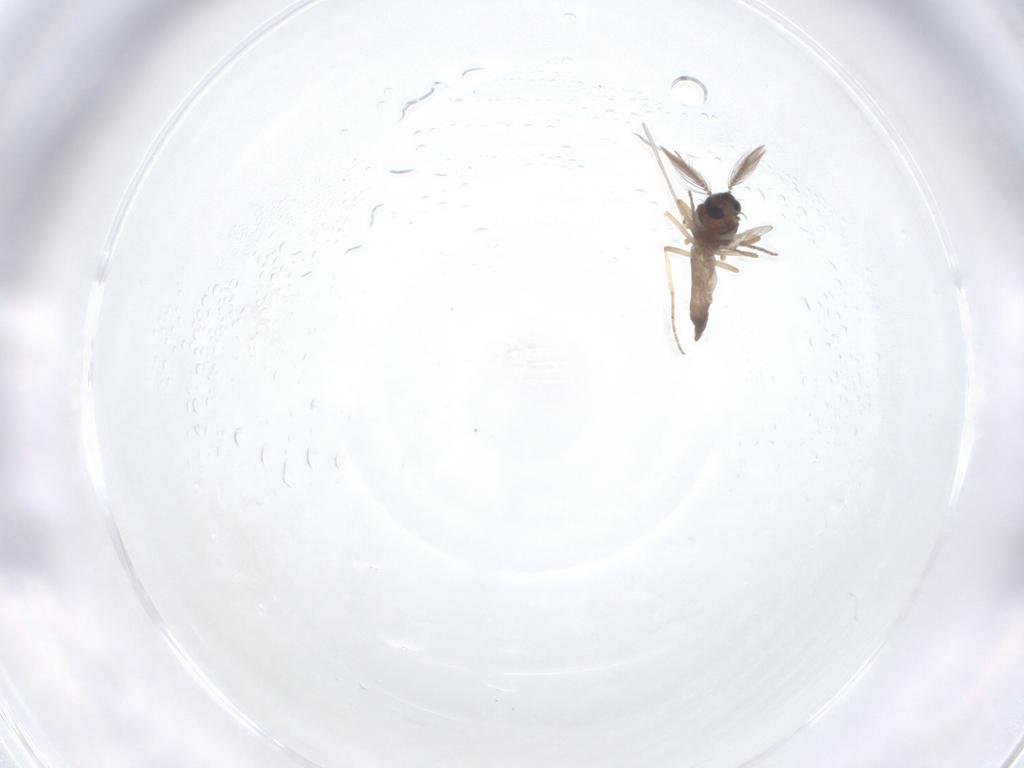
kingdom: Animalia
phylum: Arthropoda
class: Insecta
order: Diptera
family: Ceratopogonidae
